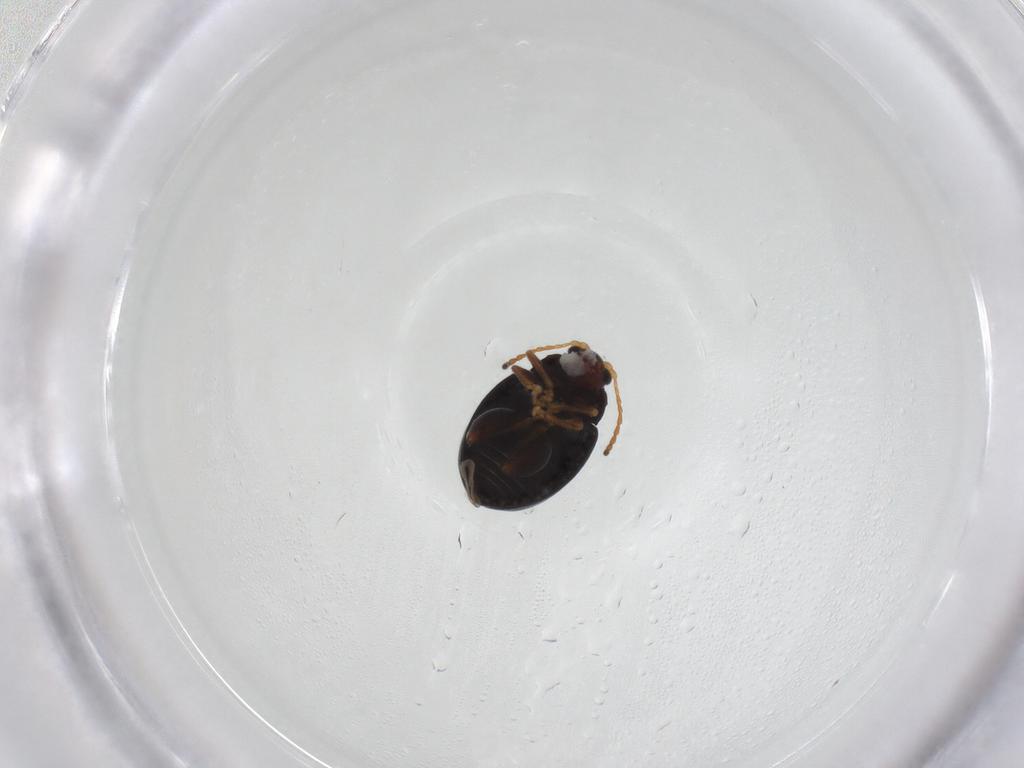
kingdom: Animalia
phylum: Arthropoda
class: Insecta
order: Coleoptera
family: Chrysomelidae
